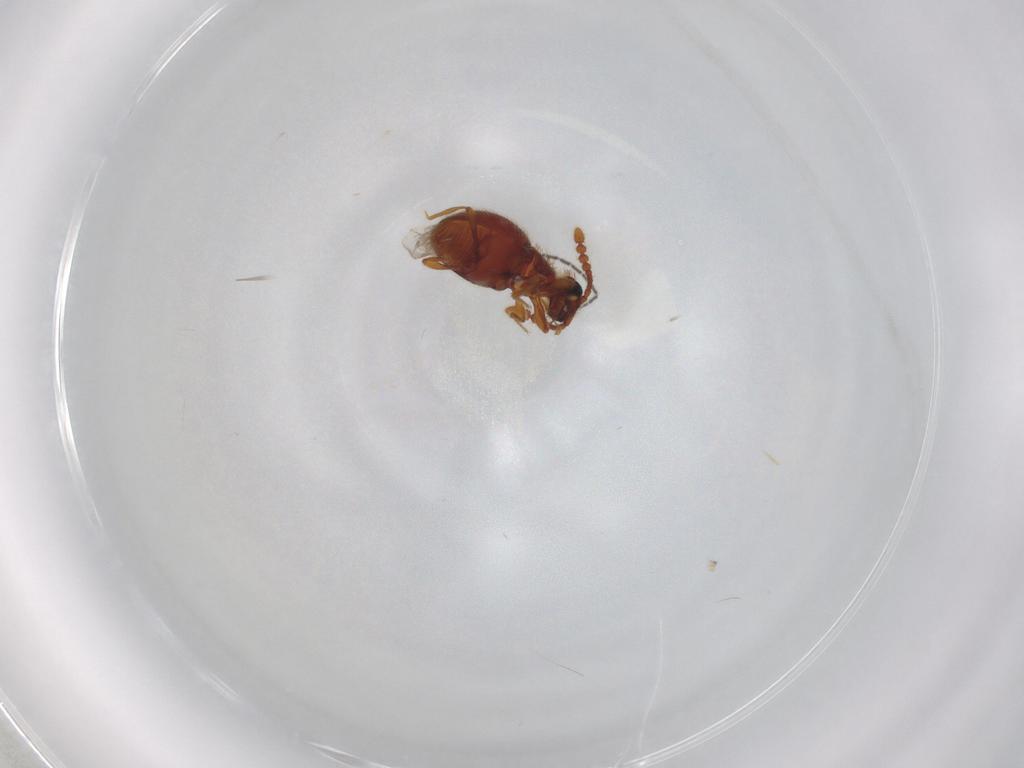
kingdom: Animalia
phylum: Arthropoda
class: Insecta
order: Coleoptera
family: Staphylinidae
